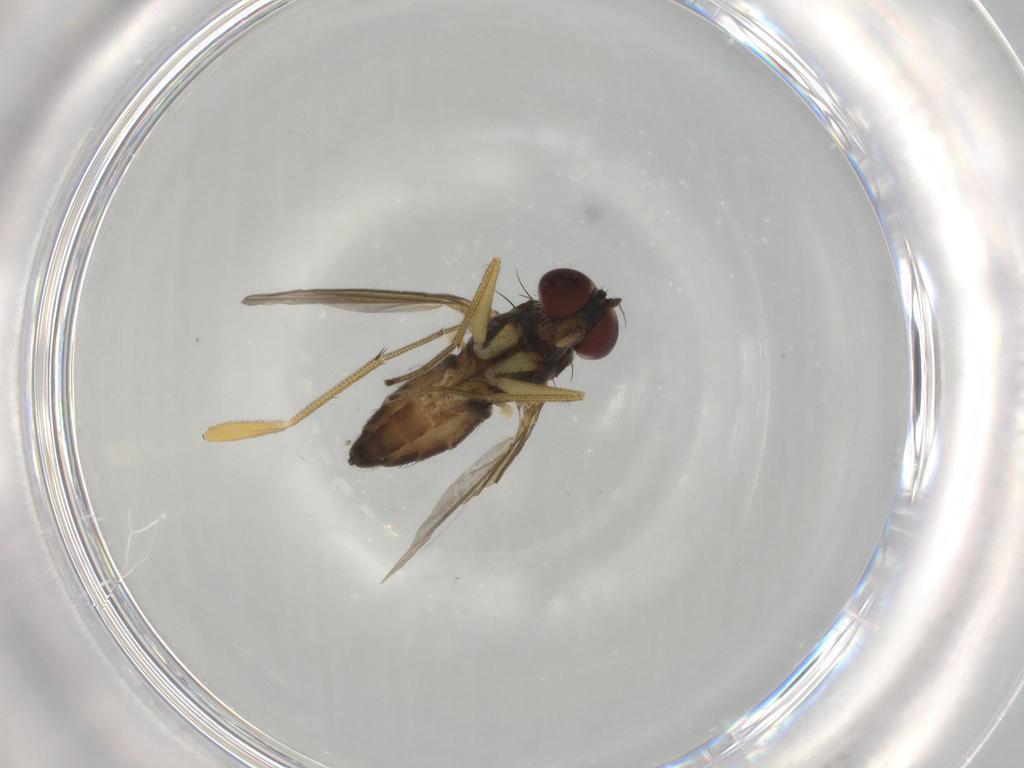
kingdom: Animalia
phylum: Arthropoda
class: Insecta
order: Diptera
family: Dolichopodidae
